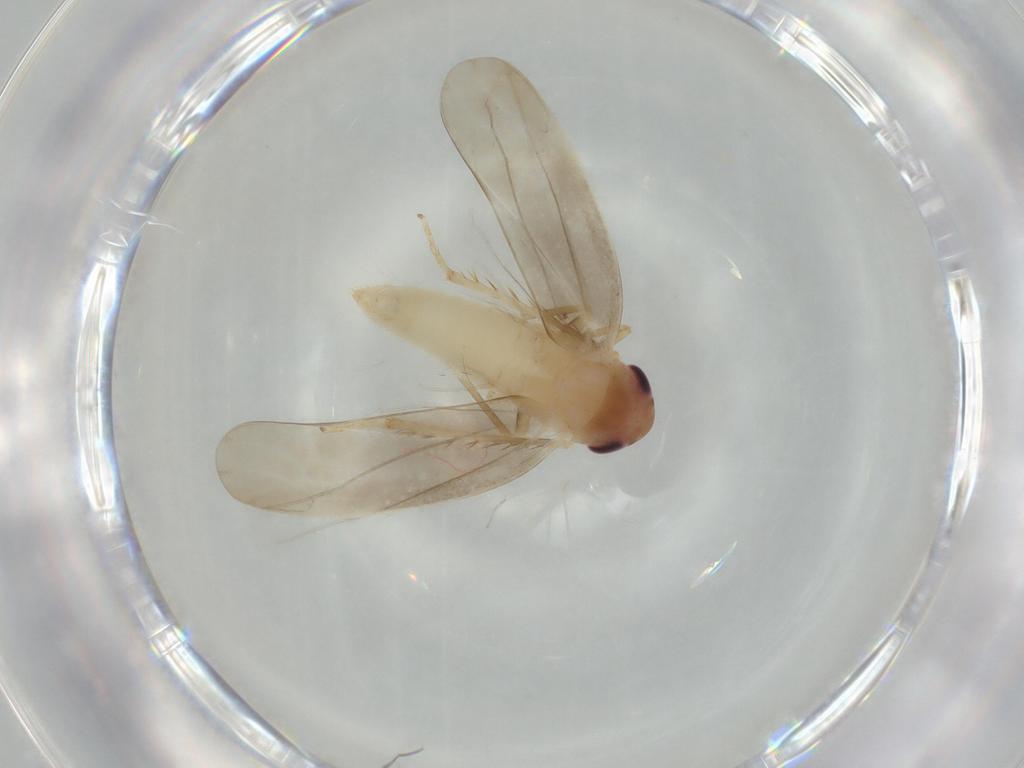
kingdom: Animalia
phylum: Arthropoda
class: Insecta
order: Hemiptera
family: Cicadellidae
